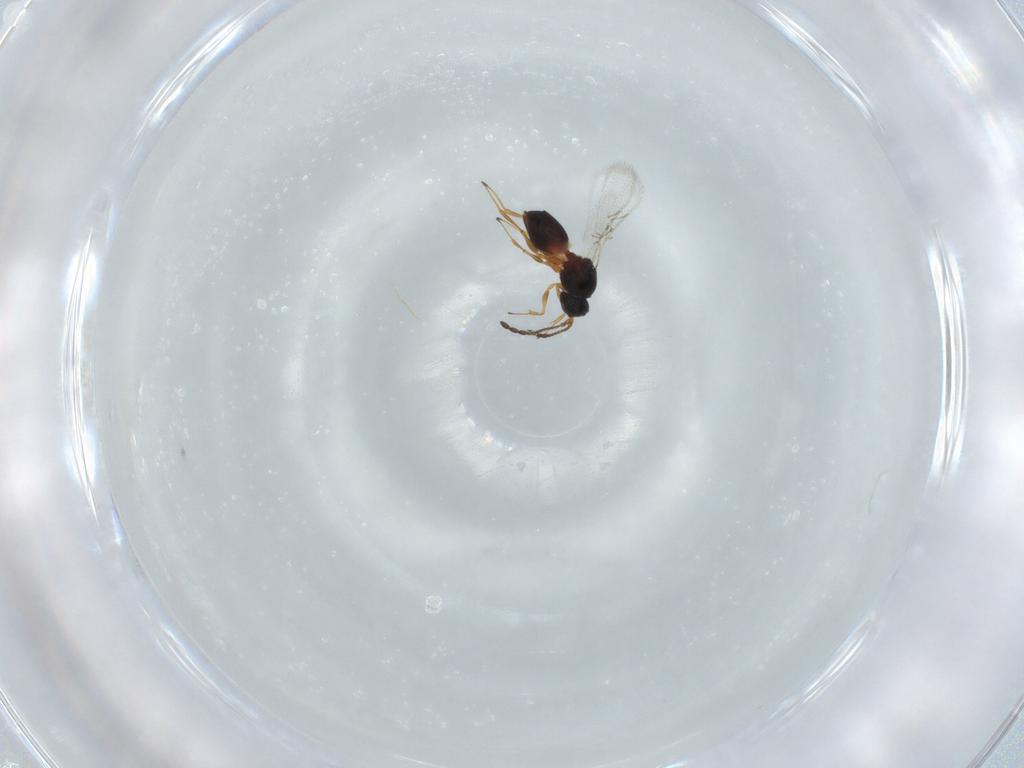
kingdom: Animalia
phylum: Arthropoda
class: Insecta
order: Hymenoptera
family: Figitidae
